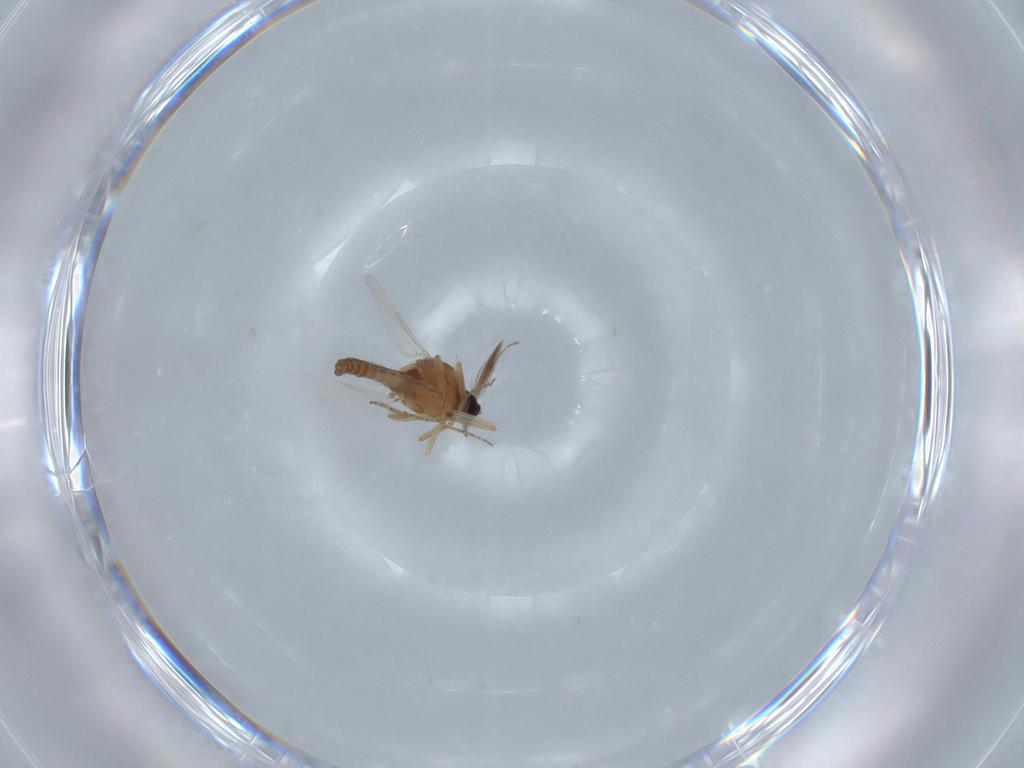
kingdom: Animalia
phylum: Arthropoda
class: Insecta
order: Diptera
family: Ceratopogonidae
